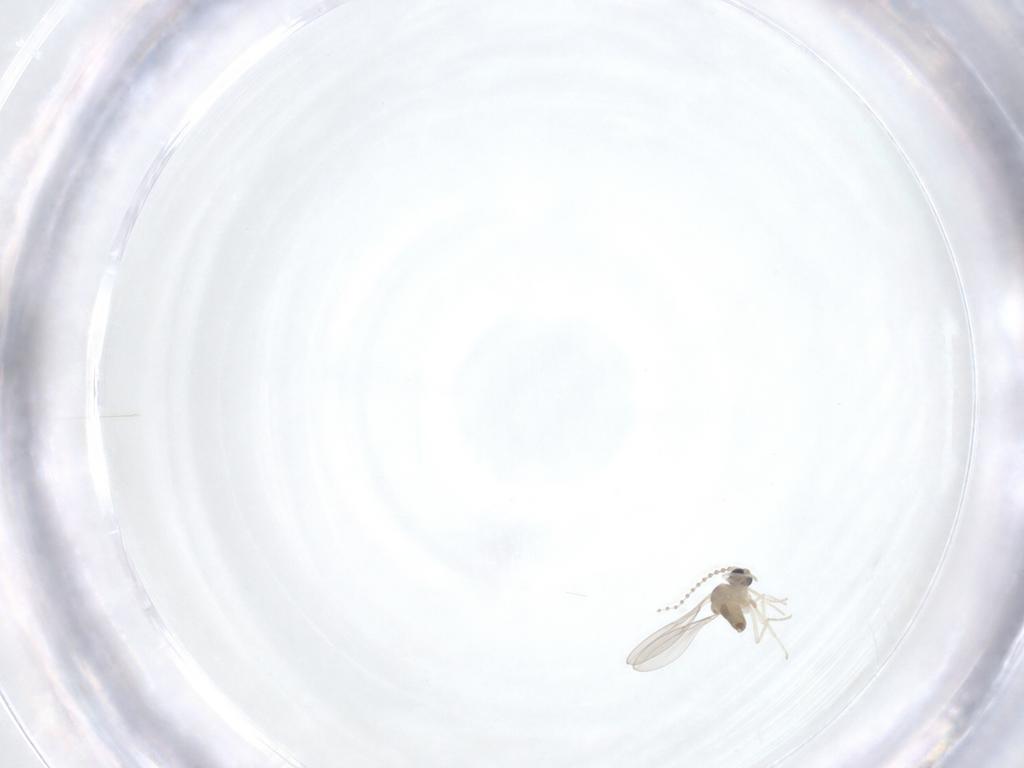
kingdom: Animalia
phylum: Arthropoda
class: Insecta
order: Diptera
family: Cecidomyiidae
